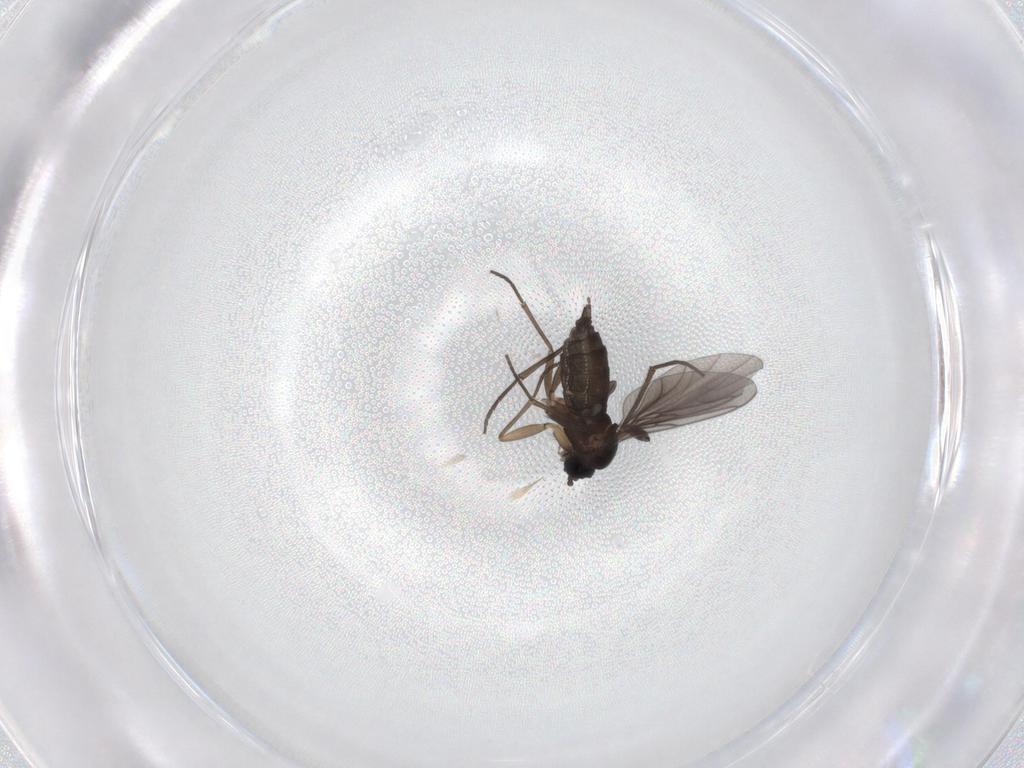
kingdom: Animalia
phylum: Arthropoda
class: Insecta
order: Diptera
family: Sciaridae
